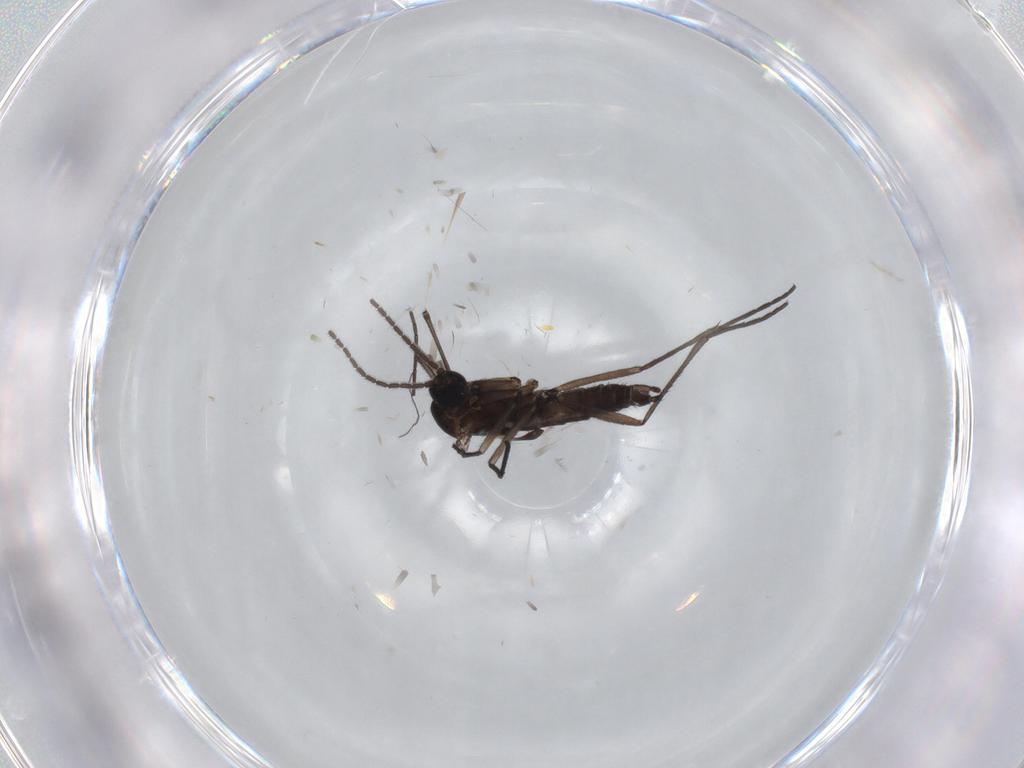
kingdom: Animalia
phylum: Arthropoda
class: Insecta
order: Diptera
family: Sciaridae
